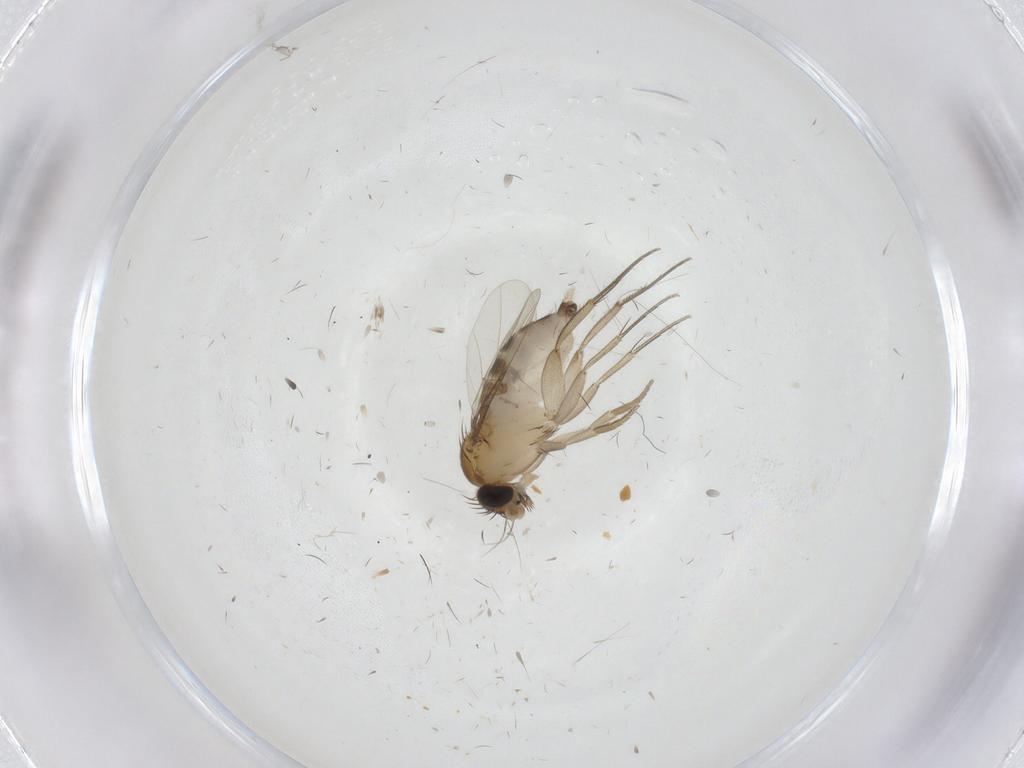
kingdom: Animalia
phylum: Arthropoda
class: Insecta
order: Diptera
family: Phoridae
